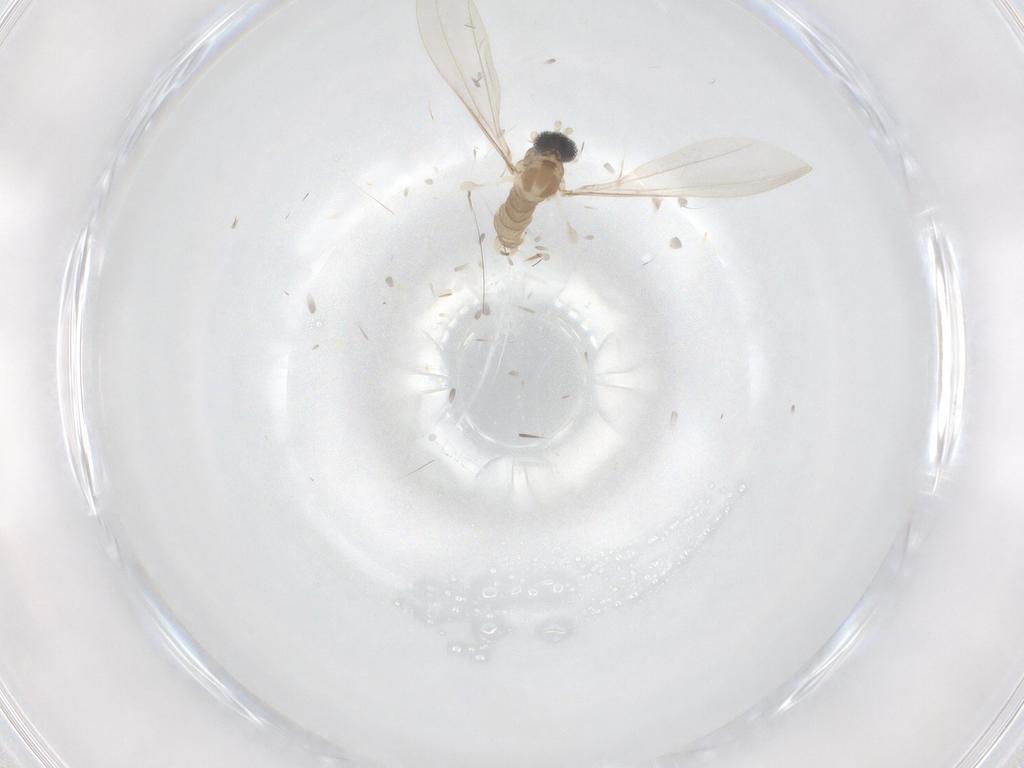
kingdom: Animalia
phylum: Arthropoda
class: Insecta
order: Diptera
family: Cecidomyiidae
